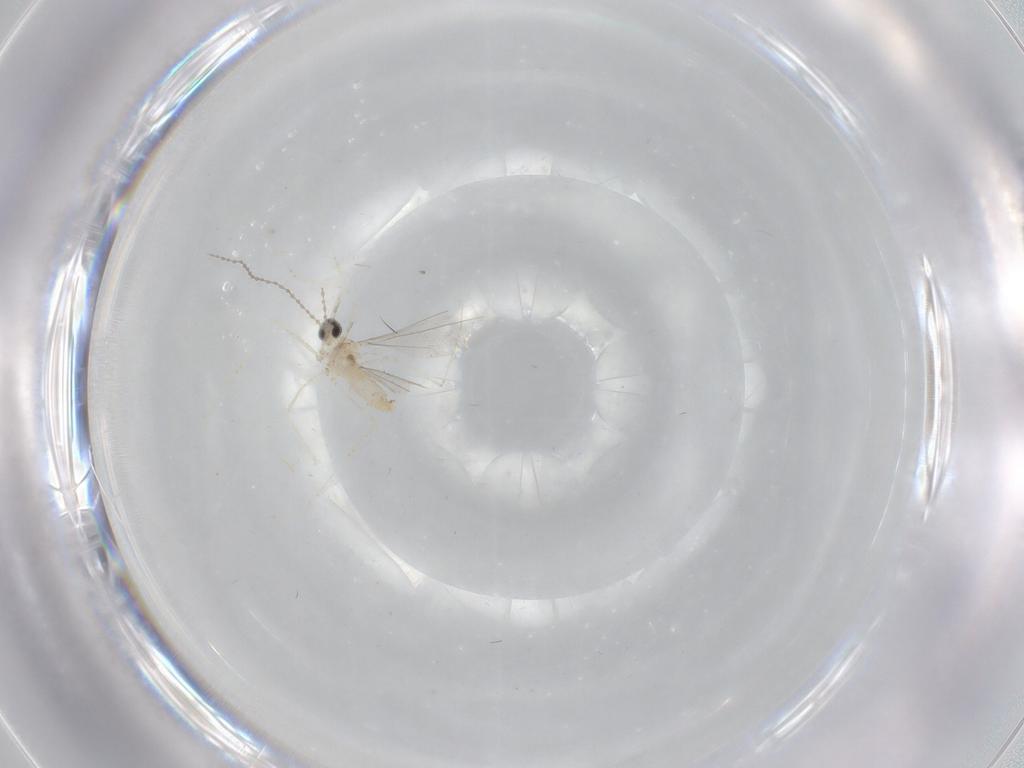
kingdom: Animalia
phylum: Arthropoda
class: Insecta
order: Diptera
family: Cecidomyiidae
